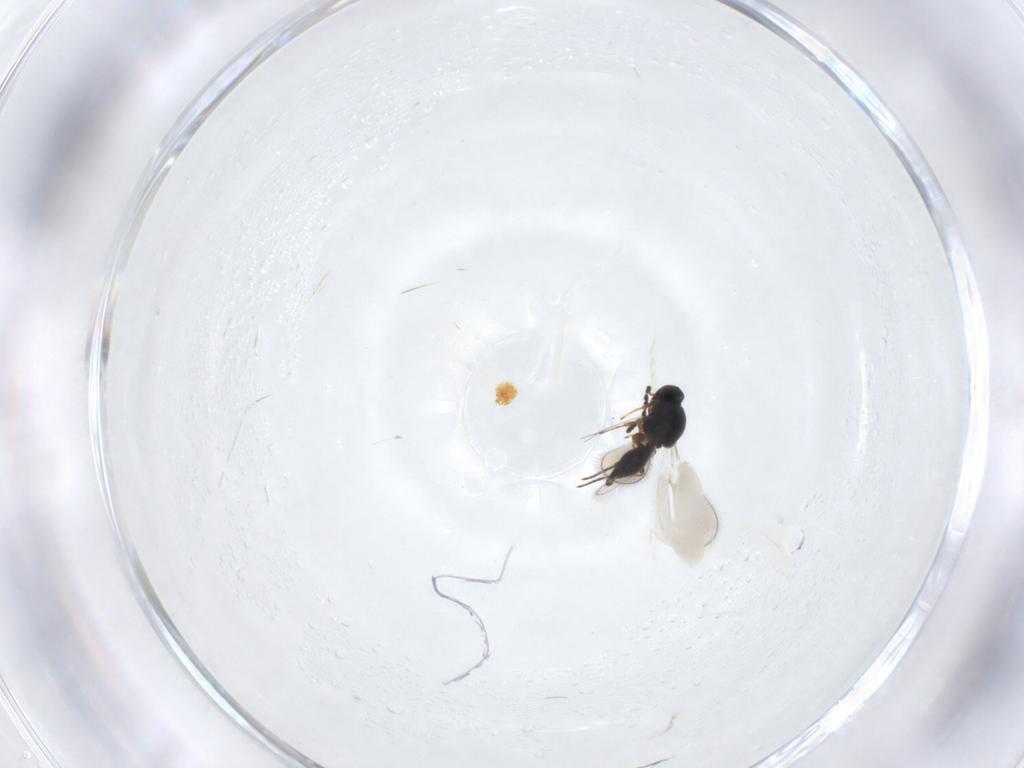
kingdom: Animalia
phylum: Arthropoda
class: Insecta
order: Hymenoptera
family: Platygastridae
